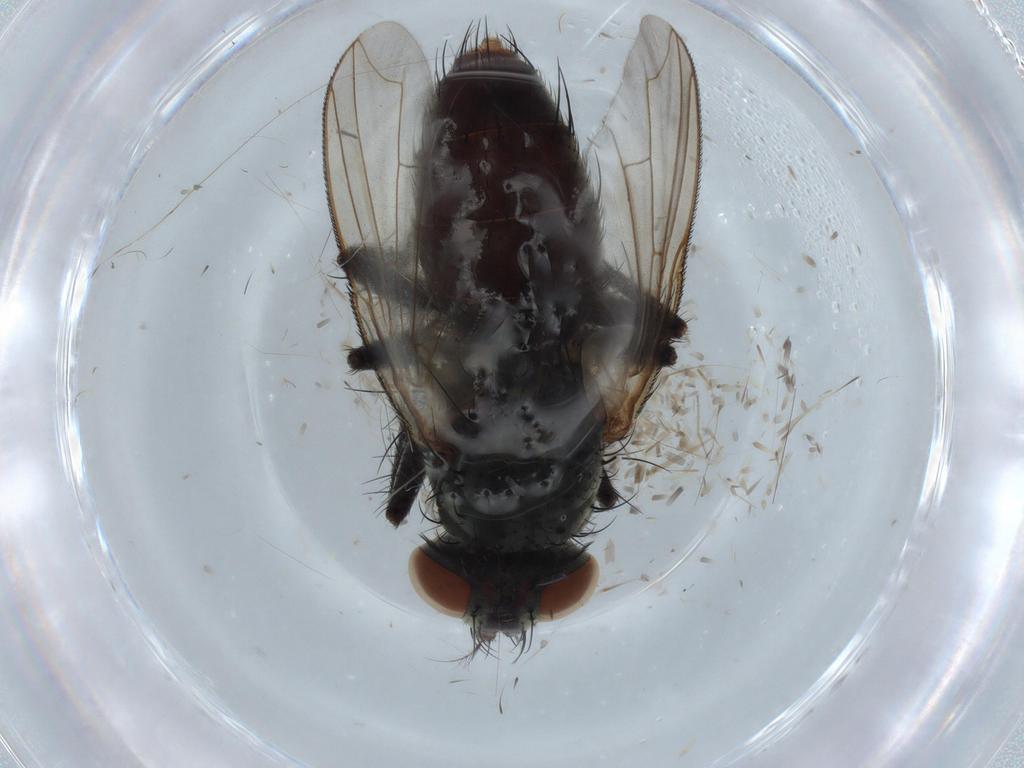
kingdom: Animalia
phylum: Arthropoda
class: Insecta
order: Diptera
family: Sarcophagidae
